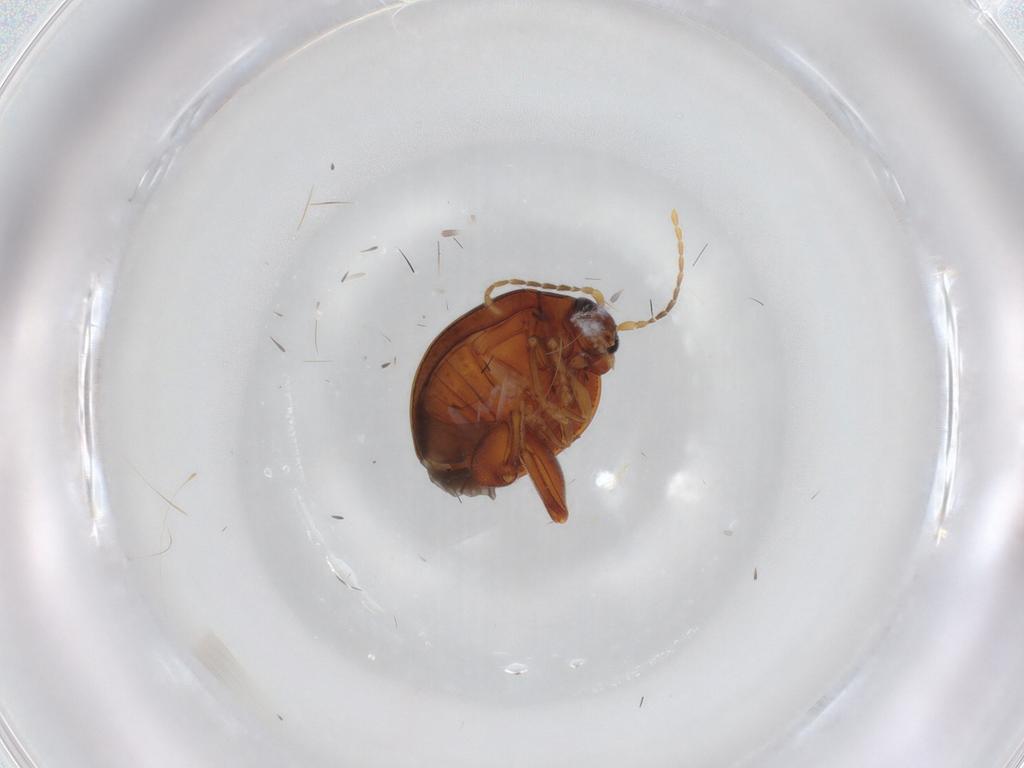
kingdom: Animalia
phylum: Arthropoda
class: Insecta
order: Coleoptera
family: Chrysomelidae
